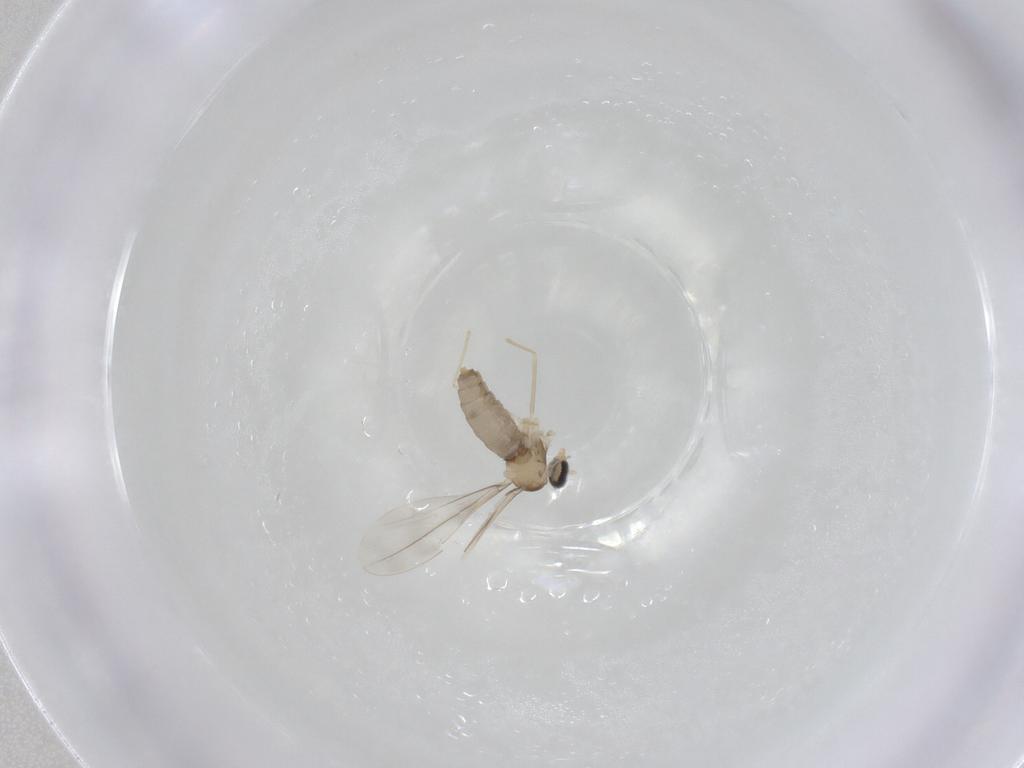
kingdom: Animalia
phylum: Arthropoda
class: Insecta
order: Diptera
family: Cecidomyiidae
